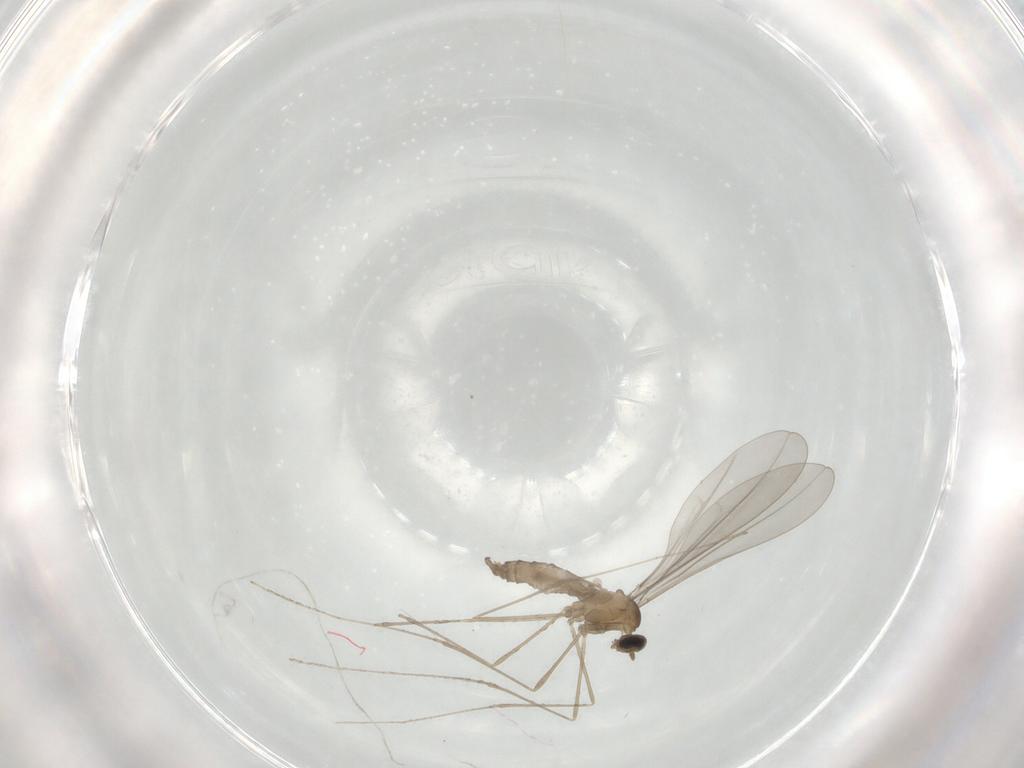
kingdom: Animalia
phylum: Arthropoda
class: Insecta
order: Diptera
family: Cecidomyiidae
